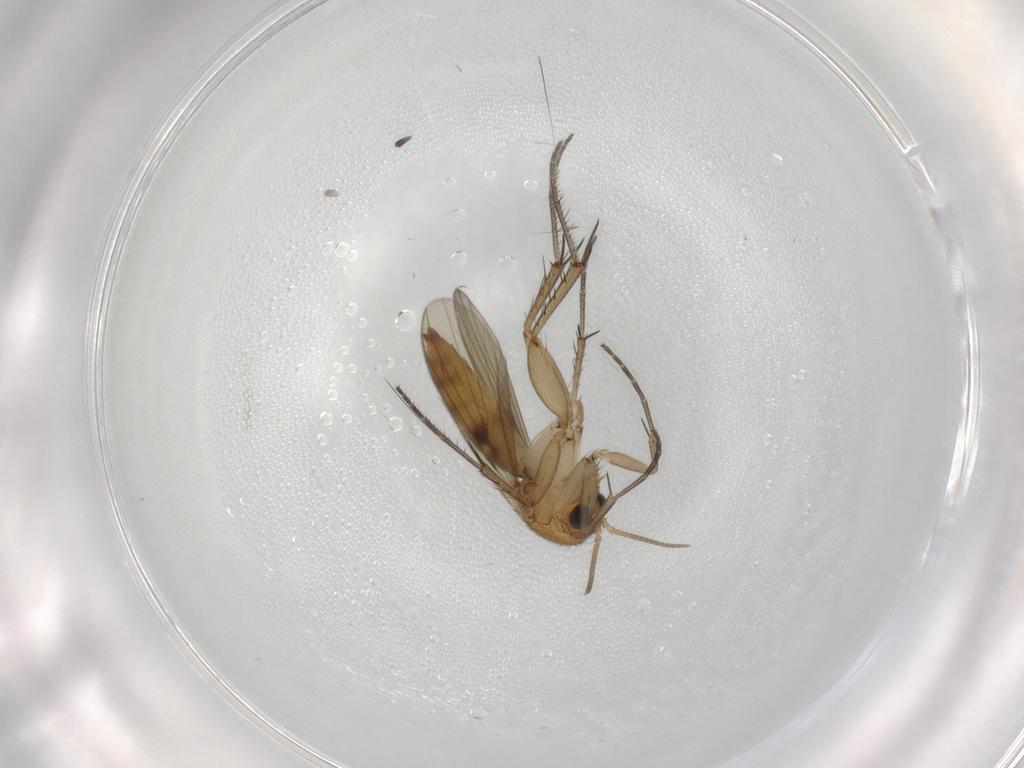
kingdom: Animalia
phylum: Arthropoda
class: Insecta
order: Diptera
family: Mycetophilidae
